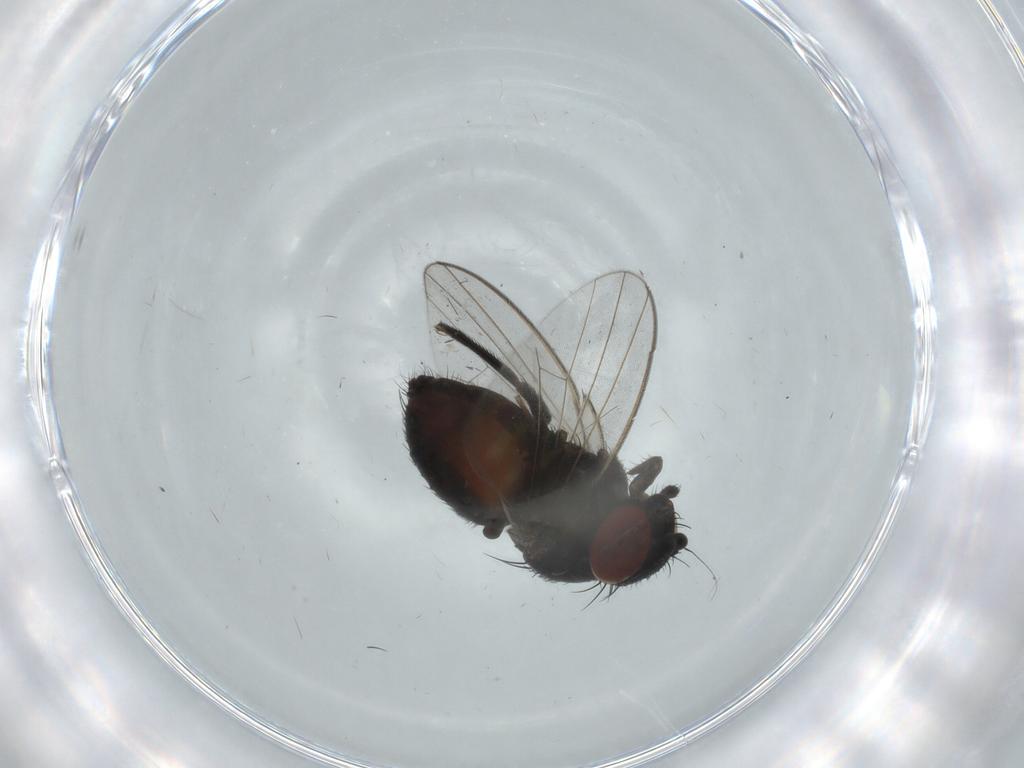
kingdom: Animalia
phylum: Arthropoda
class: Insecta
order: Diptera
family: Milichiidae
